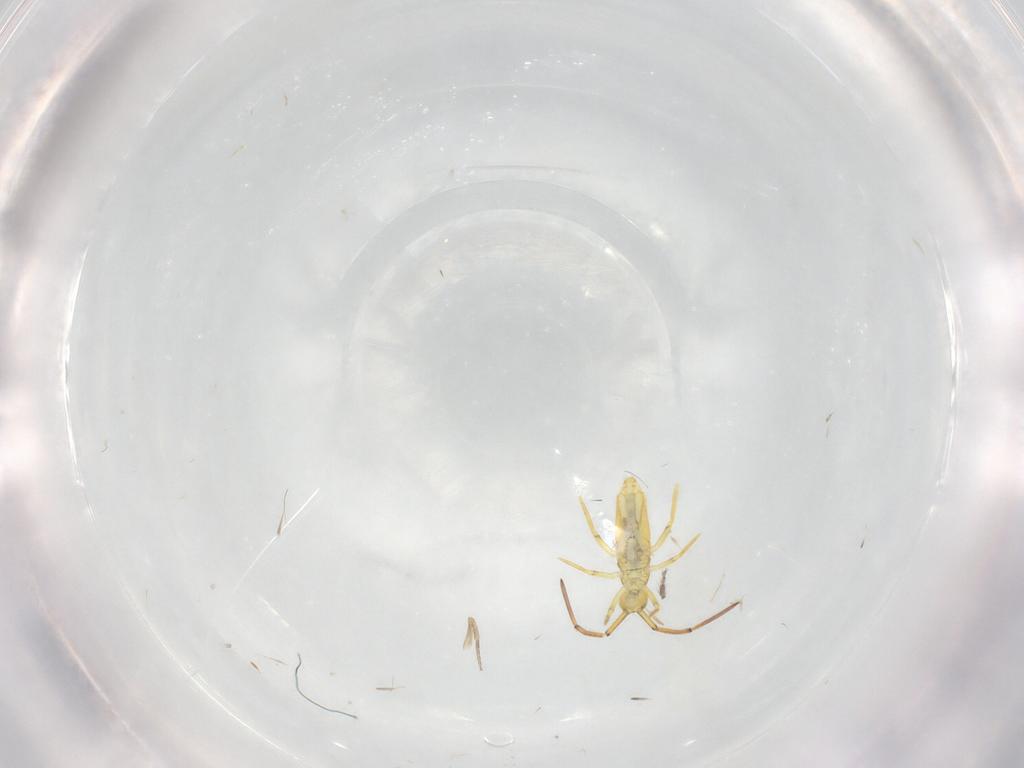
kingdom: Animalia
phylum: Arthropoda
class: Collembola
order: Entomobryomorpha
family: Paronellidae
